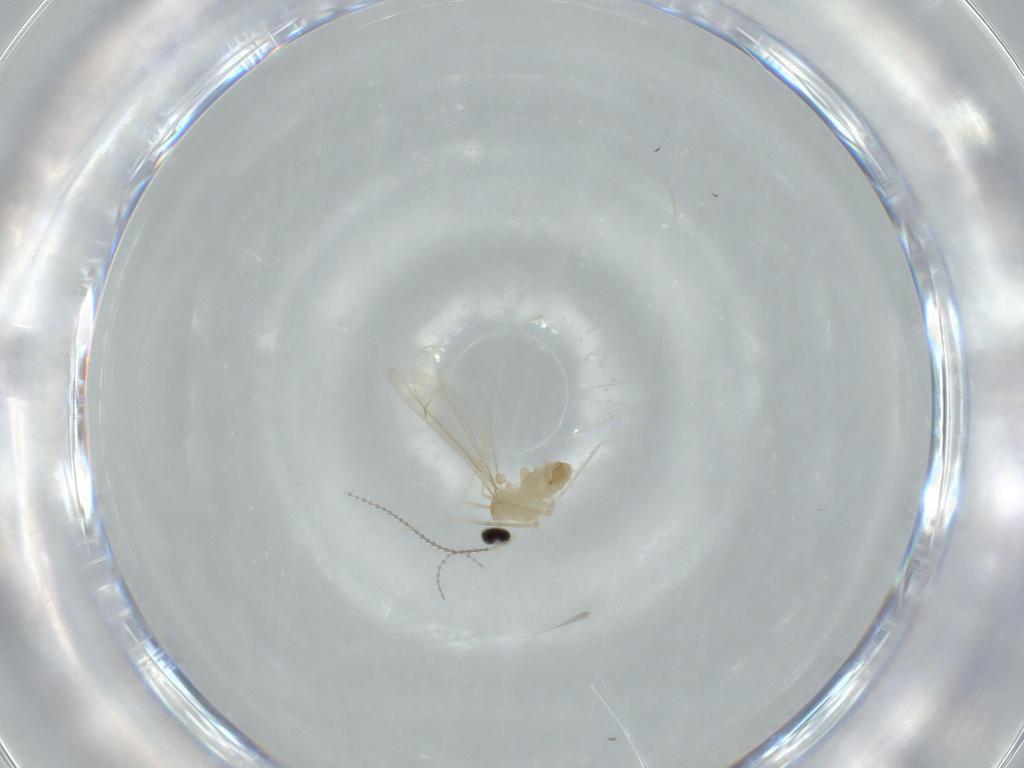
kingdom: Animalia
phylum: Arthropoda
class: Insecta
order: Diptera
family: Cecidomyiidae
